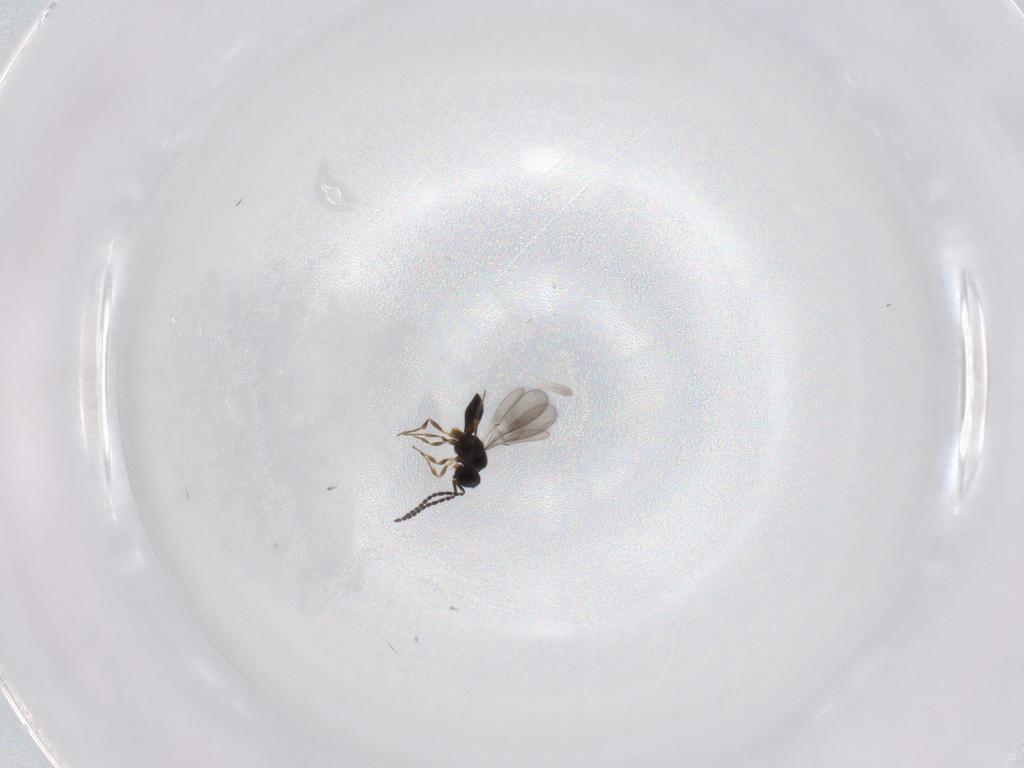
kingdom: Animalia
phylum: Arthropoda
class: Insecta
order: Hymenoptera
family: Scelionidae
